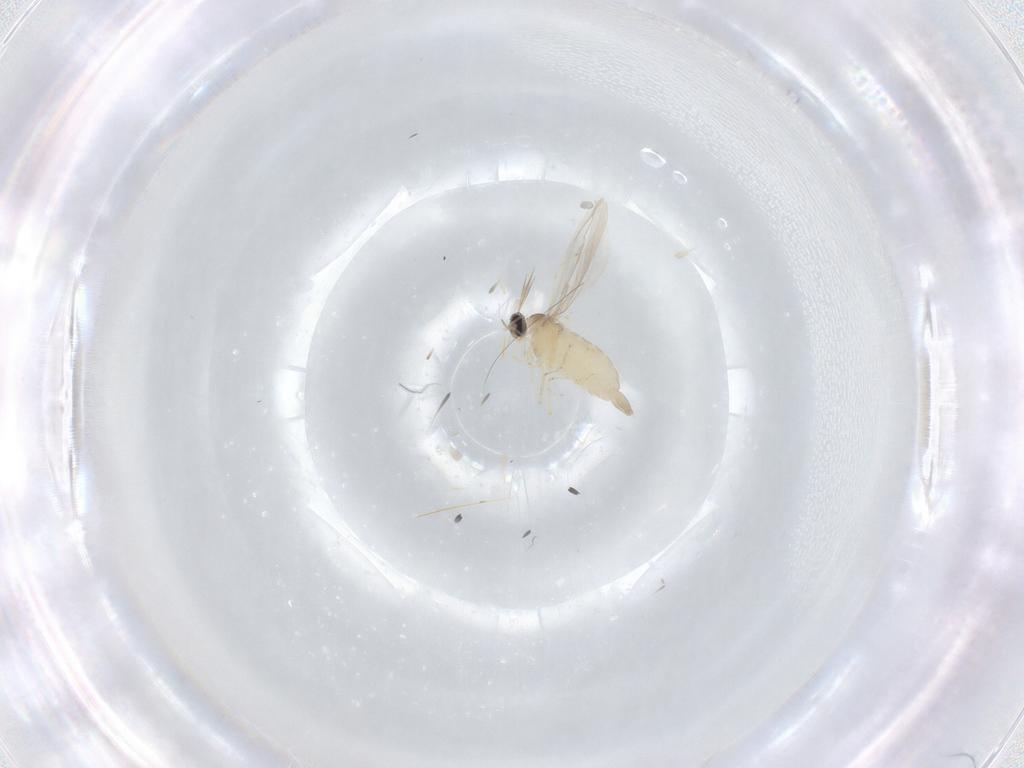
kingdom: Animalia
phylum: Arthropoda
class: Insecta
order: Diptera
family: Cecidomyiidae
